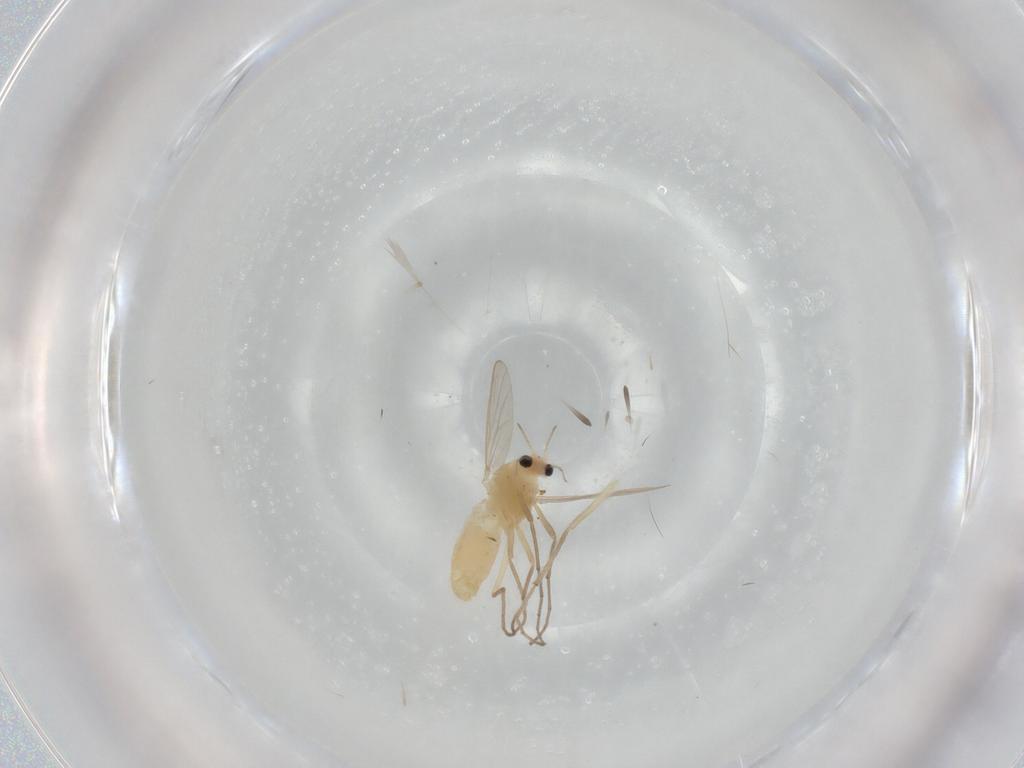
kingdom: Animalia
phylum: Arthropoda
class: Insecta
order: Diptera
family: Chironomidae
